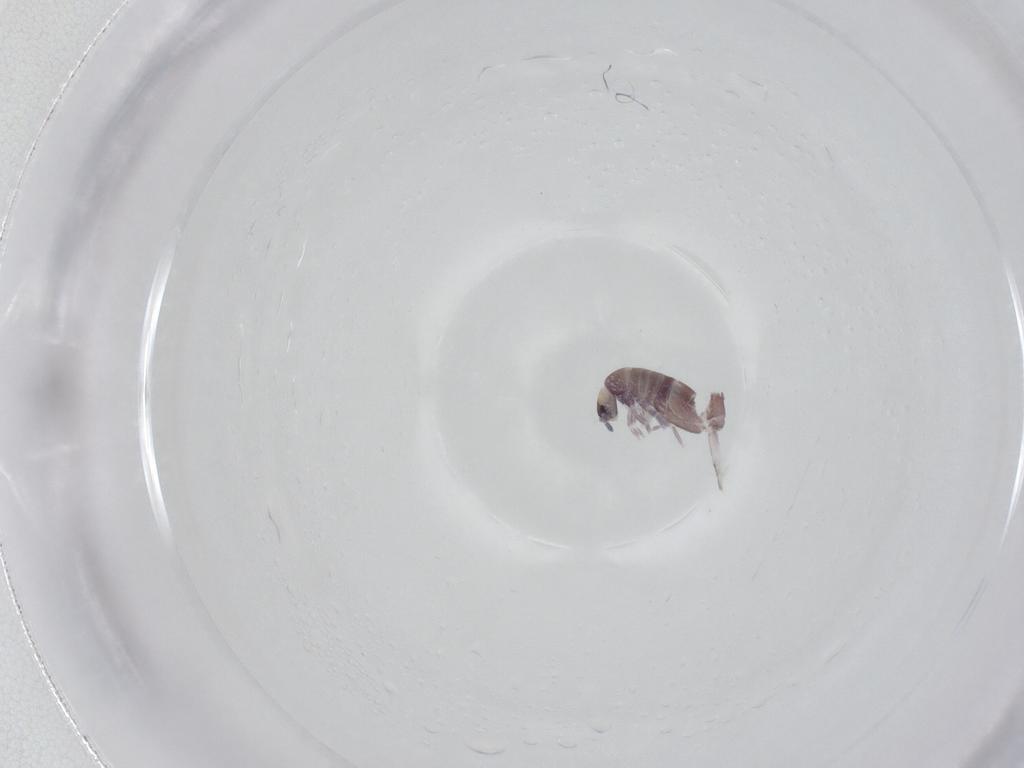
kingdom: Animalia
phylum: Arthropoda
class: Collembola
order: Entomobryomorpha
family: Entomobryidae
